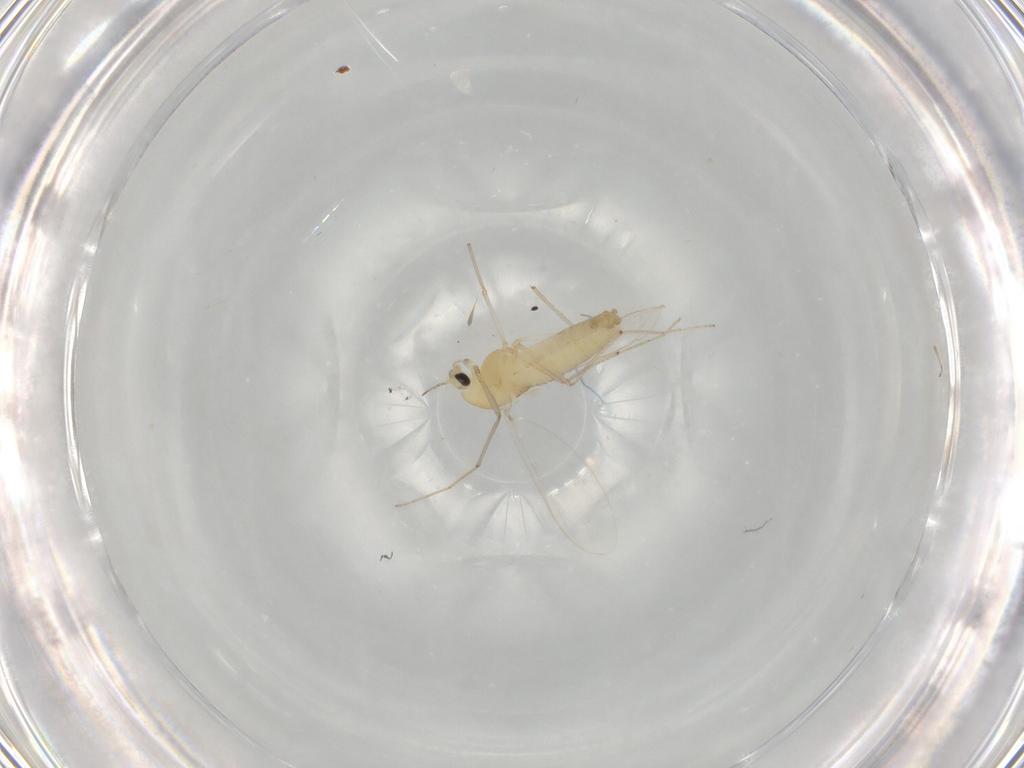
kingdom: Animalia
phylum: Arthropoda
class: Insecta
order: Diptera
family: Chironomidae
